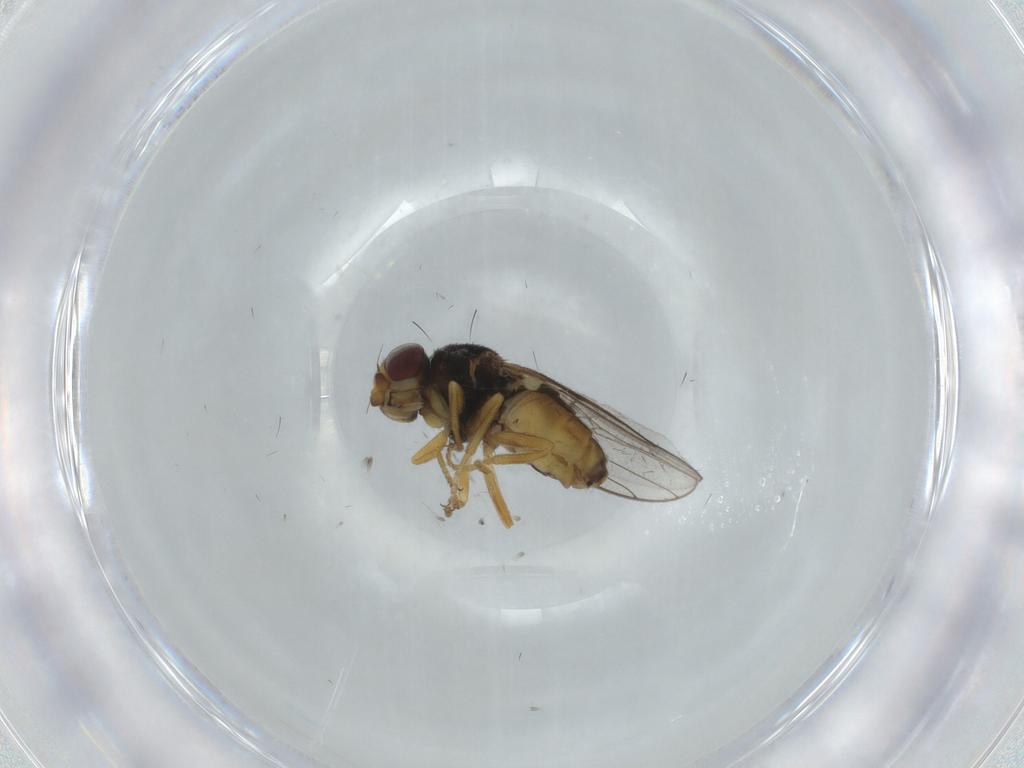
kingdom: Animalia
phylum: Arthropoda
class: Insecta
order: Diptera
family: Chloropidae
